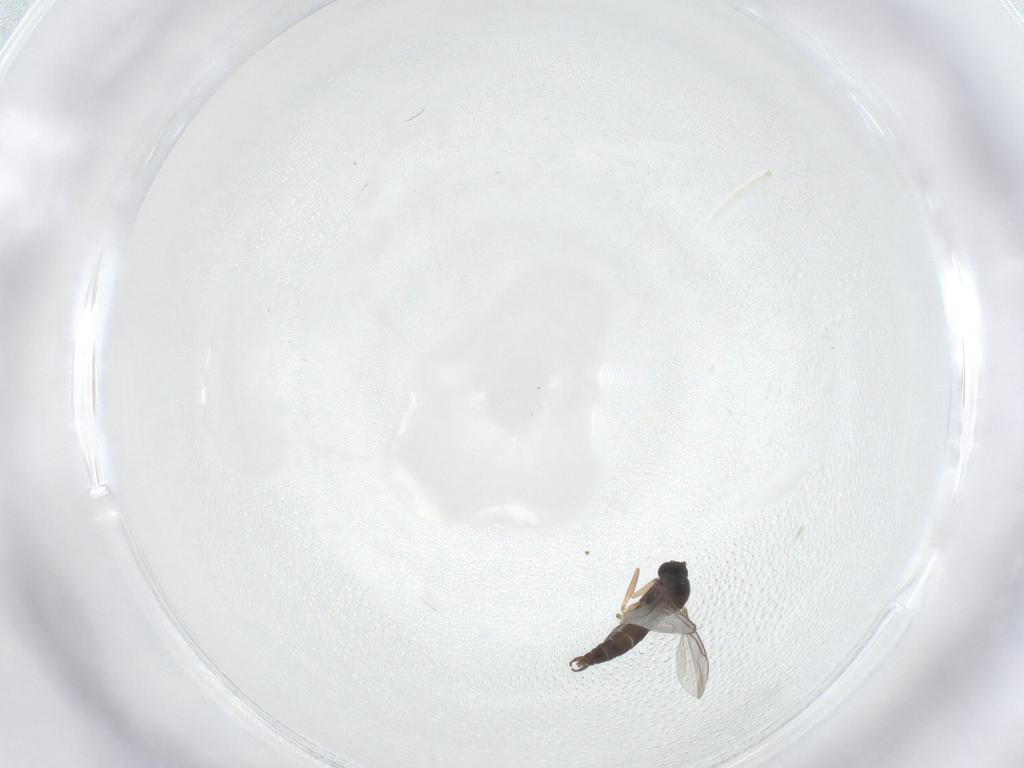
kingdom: Animalia
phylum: Arthropoda
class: Insecta
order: Diptera
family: Sciaridae
